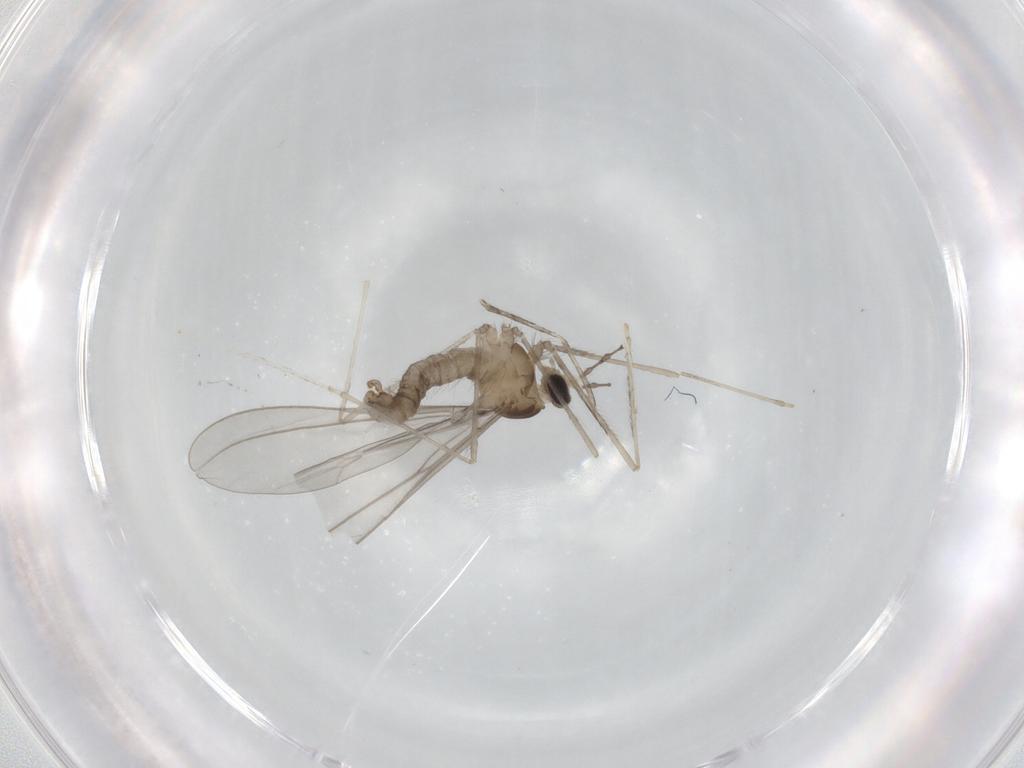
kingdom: Animalia
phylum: Arthropoda
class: Insecta
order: Diptera
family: Cecidomyiidae
